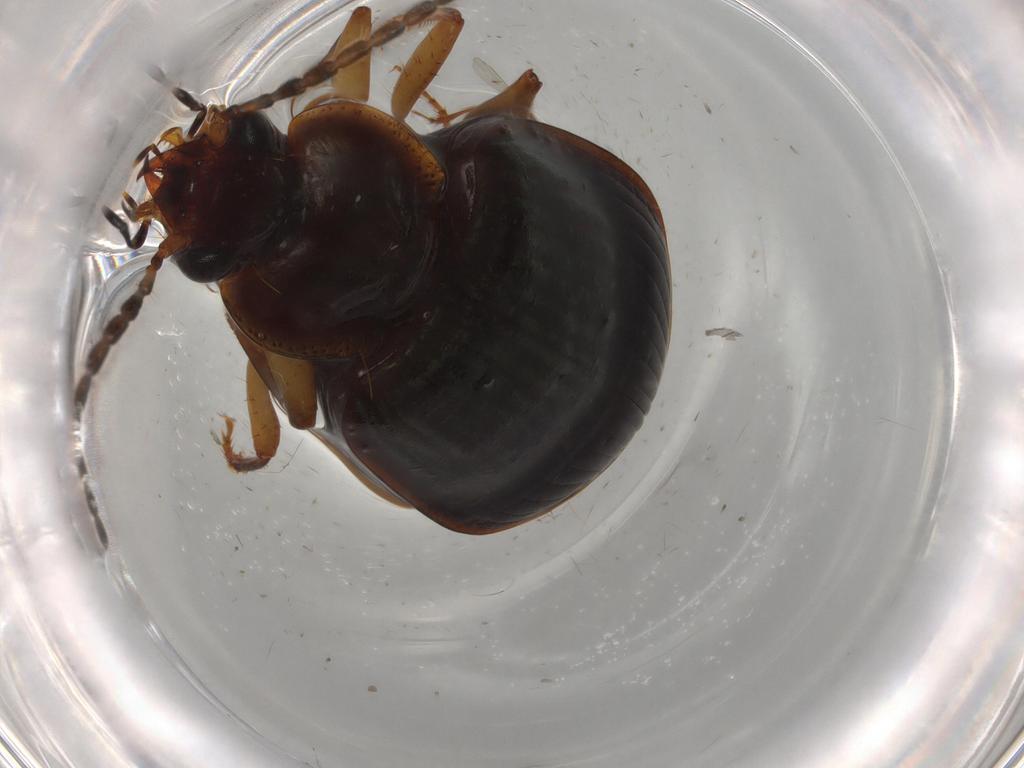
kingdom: Animalia
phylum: Arthropoda
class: Insecta
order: Coleoptera
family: Carabidae
